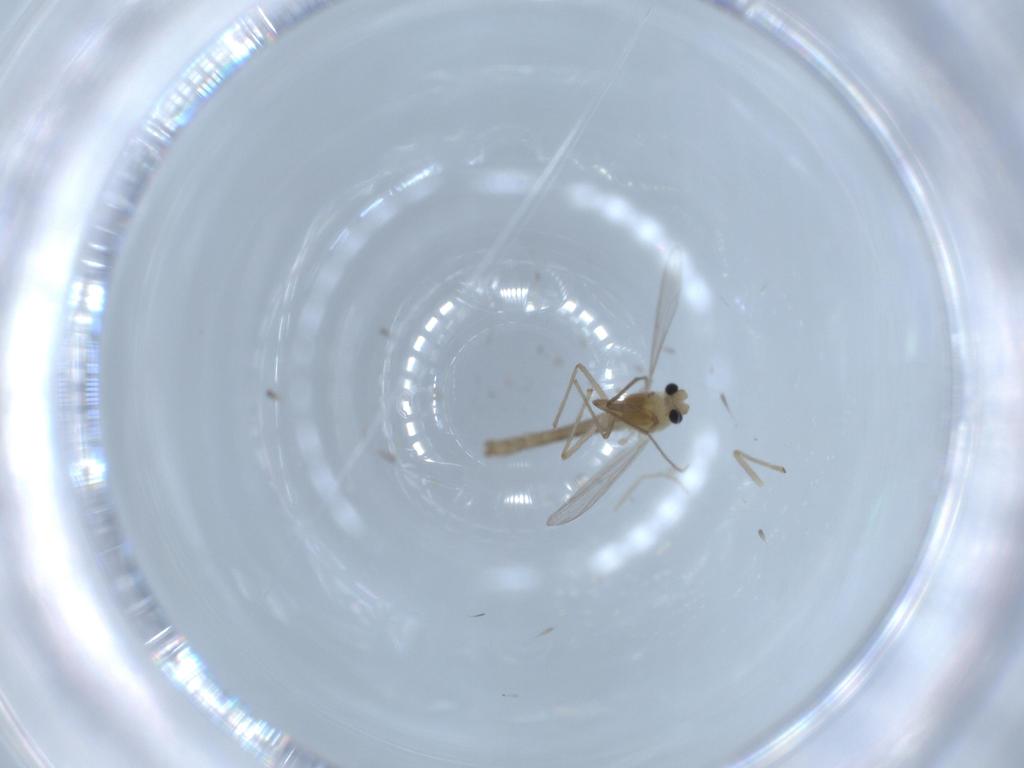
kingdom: Animalia
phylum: Arthropoda
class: Insecta
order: Diptera
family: Chironomidae
